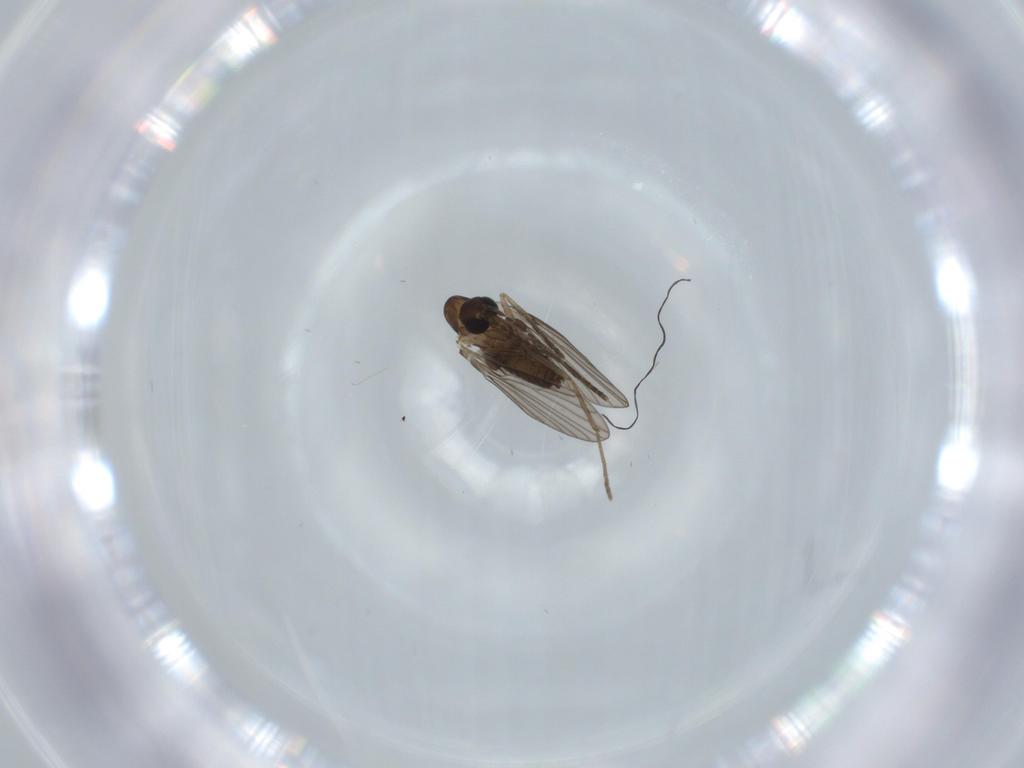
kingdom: Animalia
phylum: Arthropoda
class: Insecta
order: Diptera
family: Psychodidae
